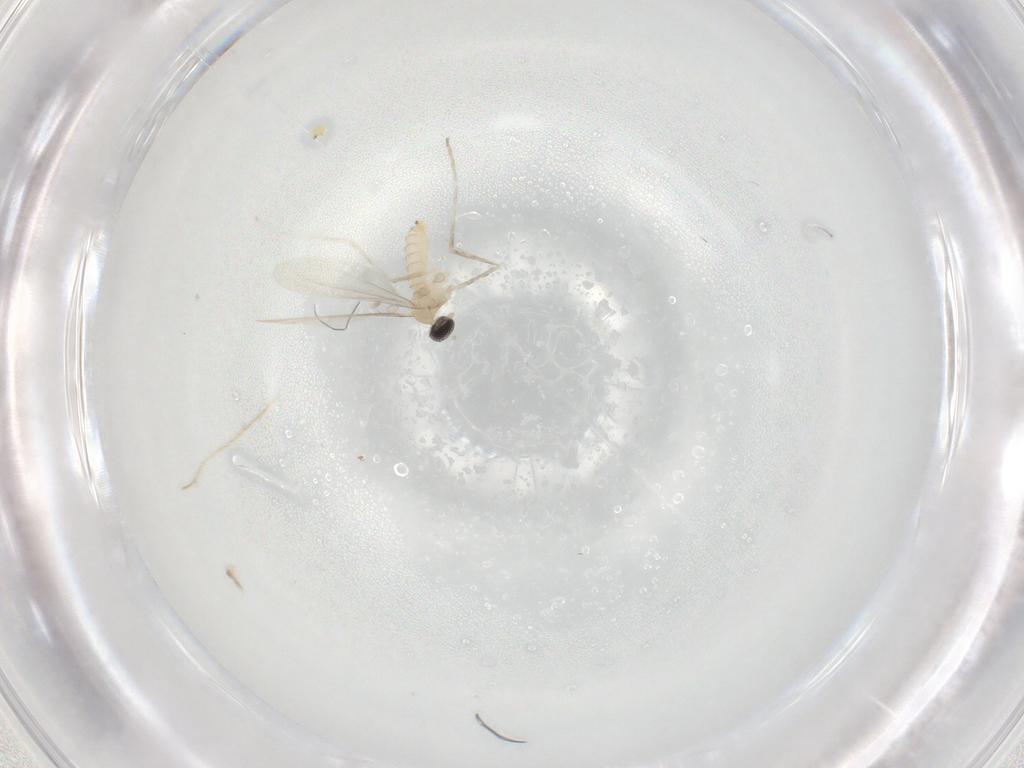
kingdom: Animalia
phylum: Arthropoda
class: Insecta
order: Diptera
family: Cecidomyiidae
